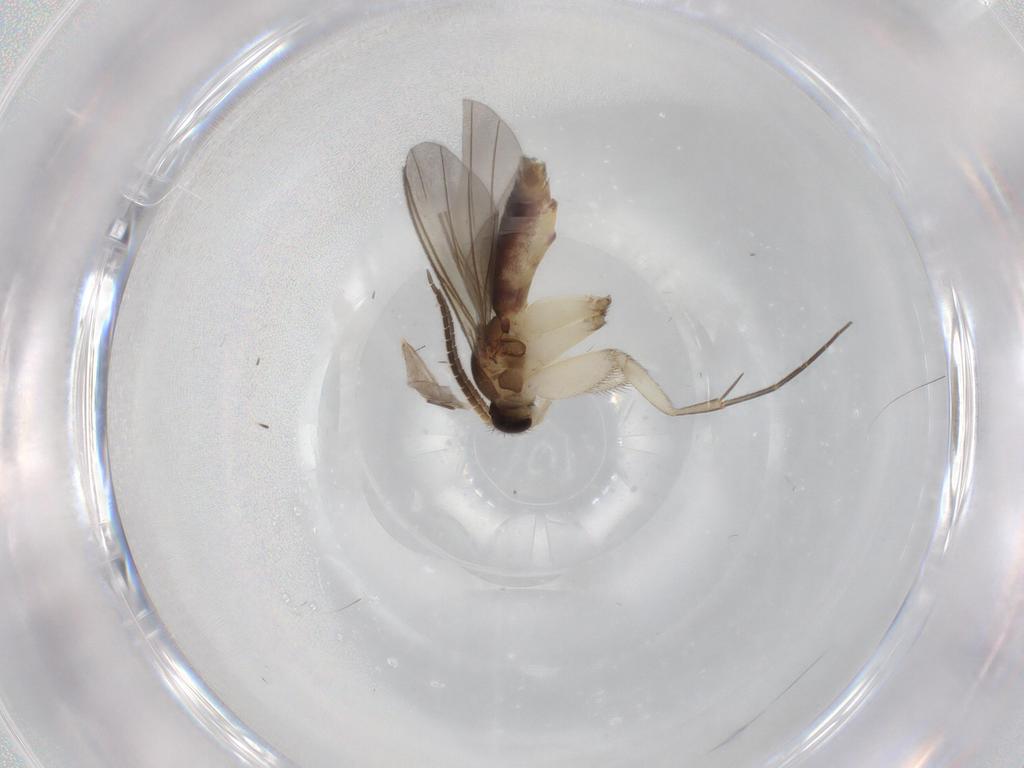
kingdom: Animalia
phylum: Arthropoda
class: Insecta
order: Diptera
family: Mycetophilidae
